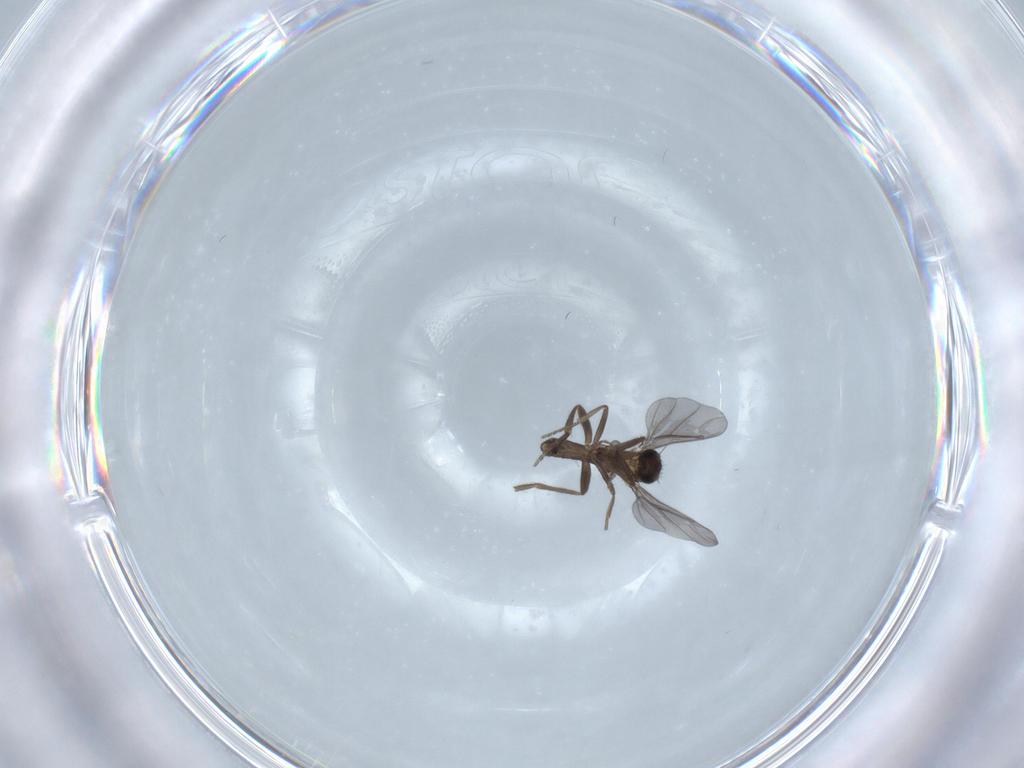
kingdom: Animalia
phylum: Arthropoda
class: Insecta
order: Diptera
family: Phoridae
